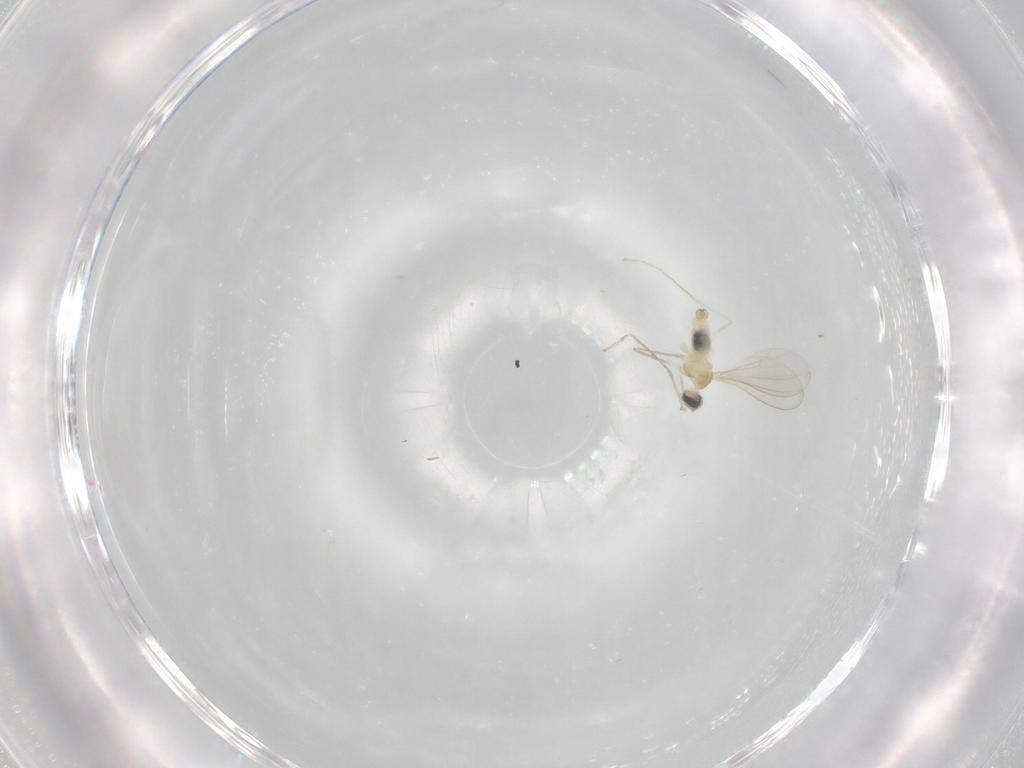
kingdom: Animalia
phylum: Arthropoda
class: Insecta
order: Diptera
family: Cecidomyiidae
